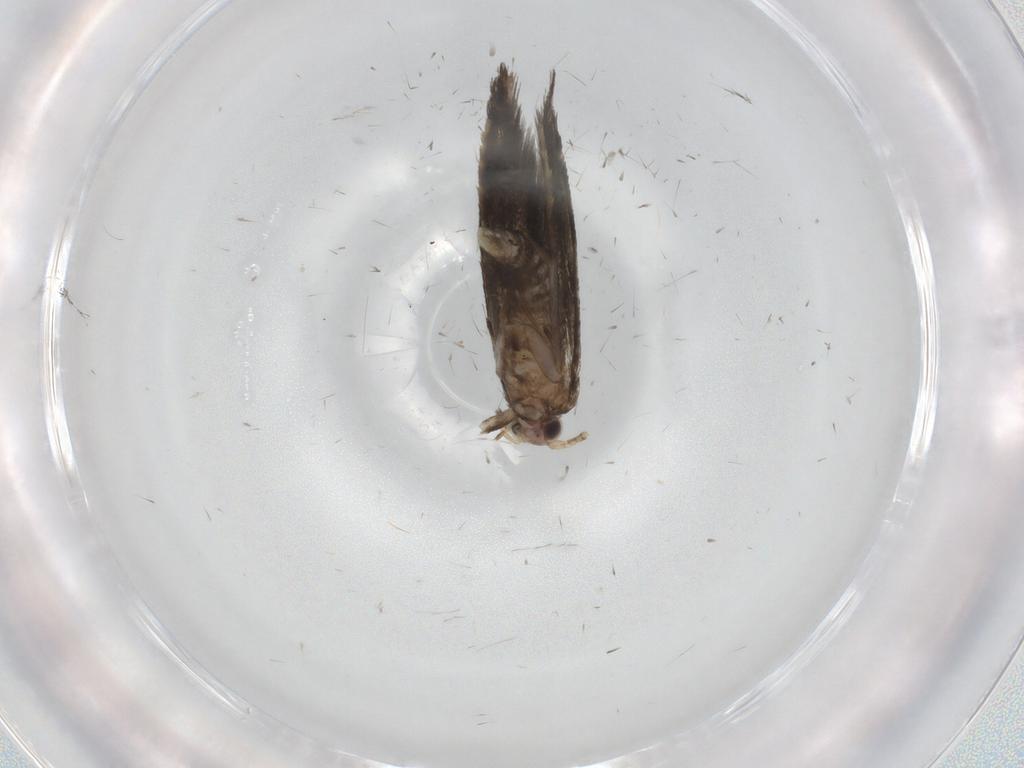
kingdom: Animalia
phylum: Arthropoda
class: Insecta
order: Lepidoptera
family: Tineidae
